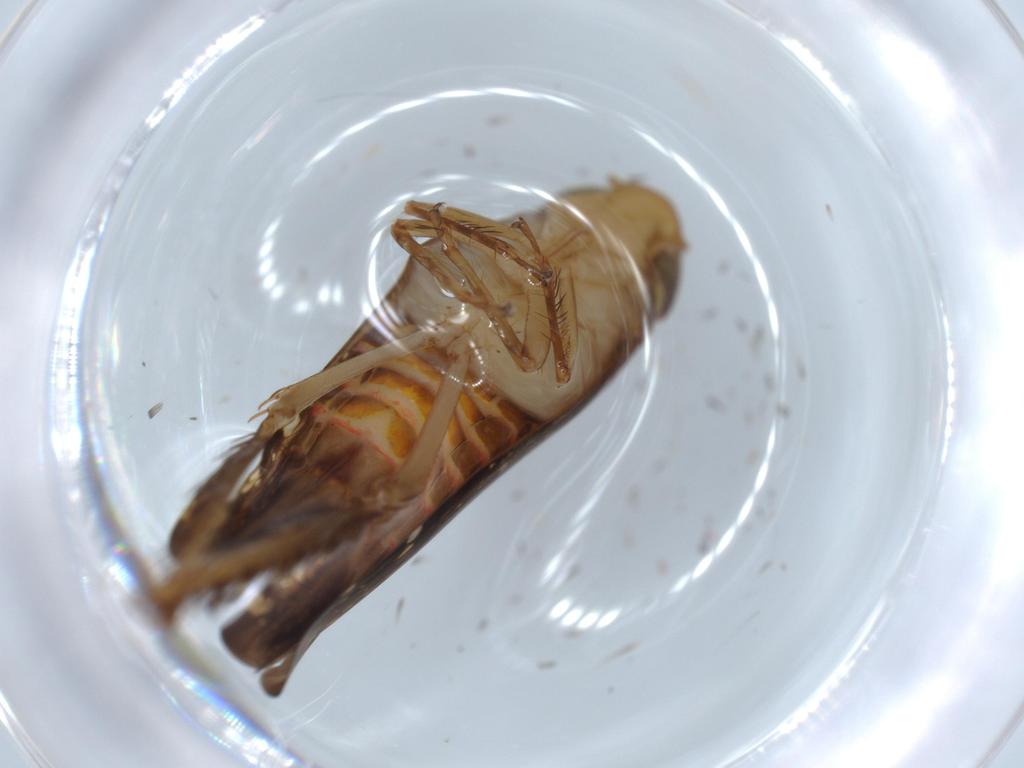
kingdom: Animalia
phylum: Arthropoda
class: Insecta
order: Hemiptera
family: Cicadellidae
